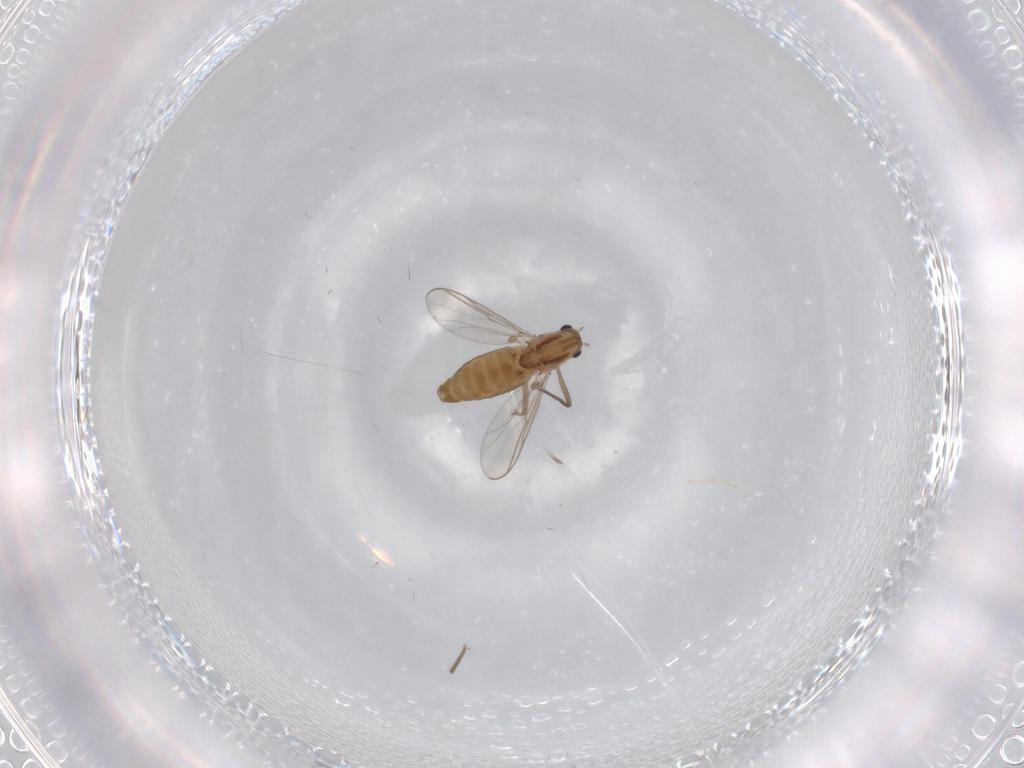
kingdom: Animalia
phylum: Arthropoda
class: Insecta
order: Diptera
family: Chironomidae
